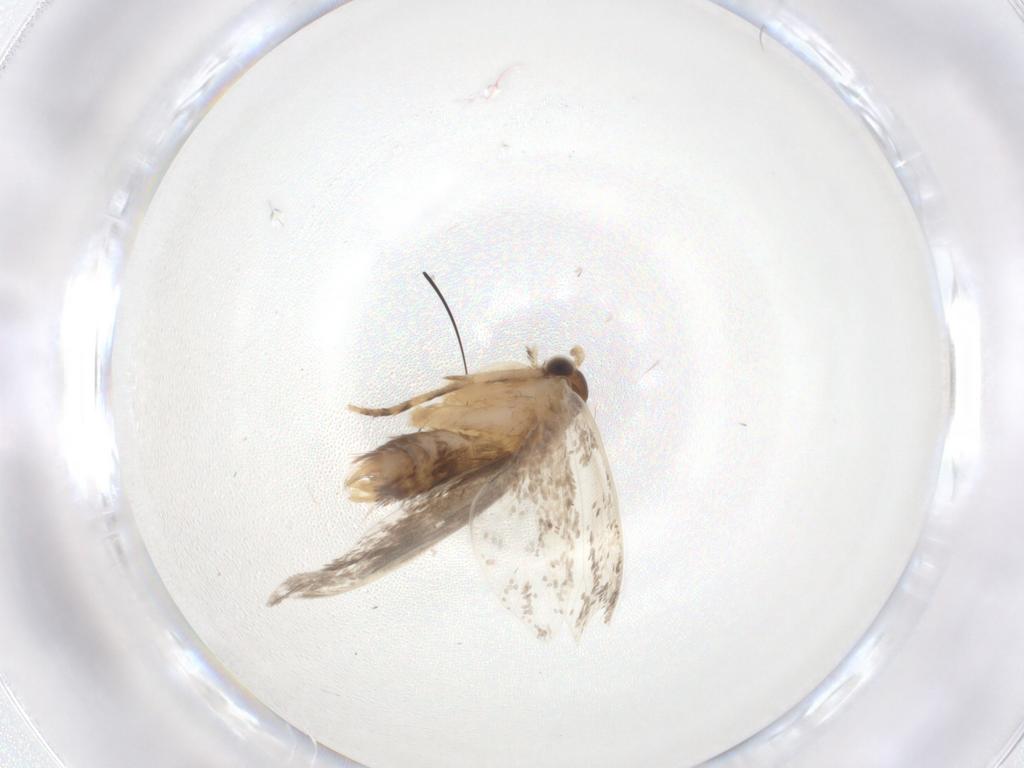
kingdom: Animalia
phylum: Arthropoda
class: Insecta
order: Lepidoptera
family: Dryadaulidae
